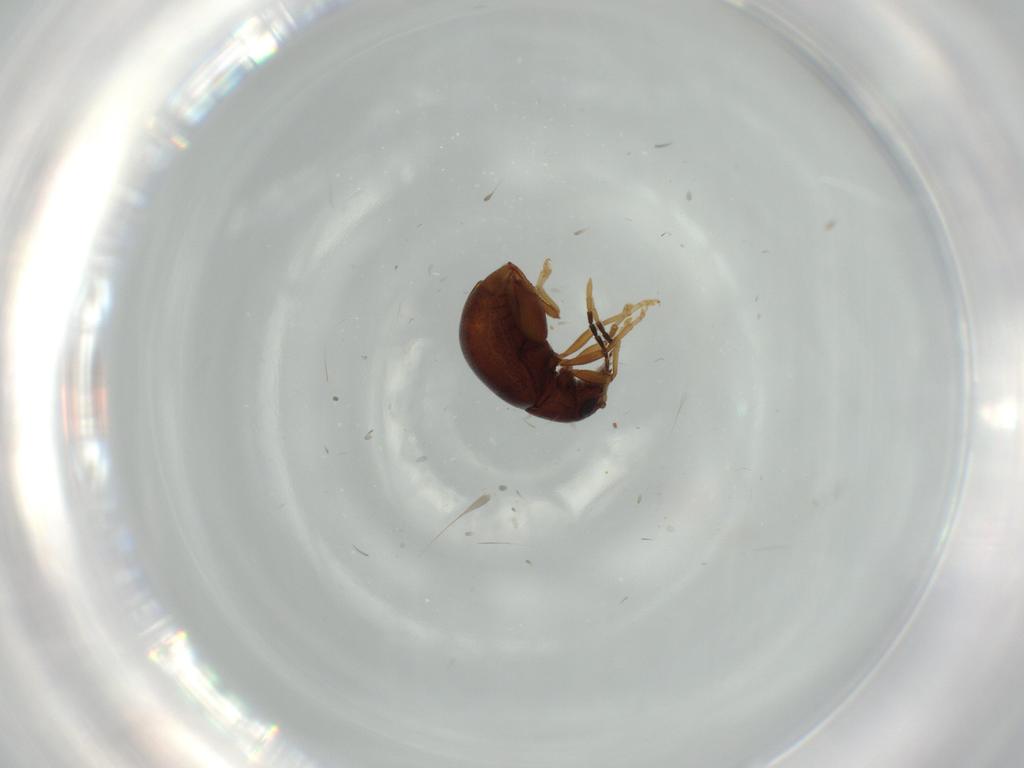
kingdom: Animalia
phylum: Arthropoda
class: Insecta
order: Coleoptera
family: Chrysomelidae
